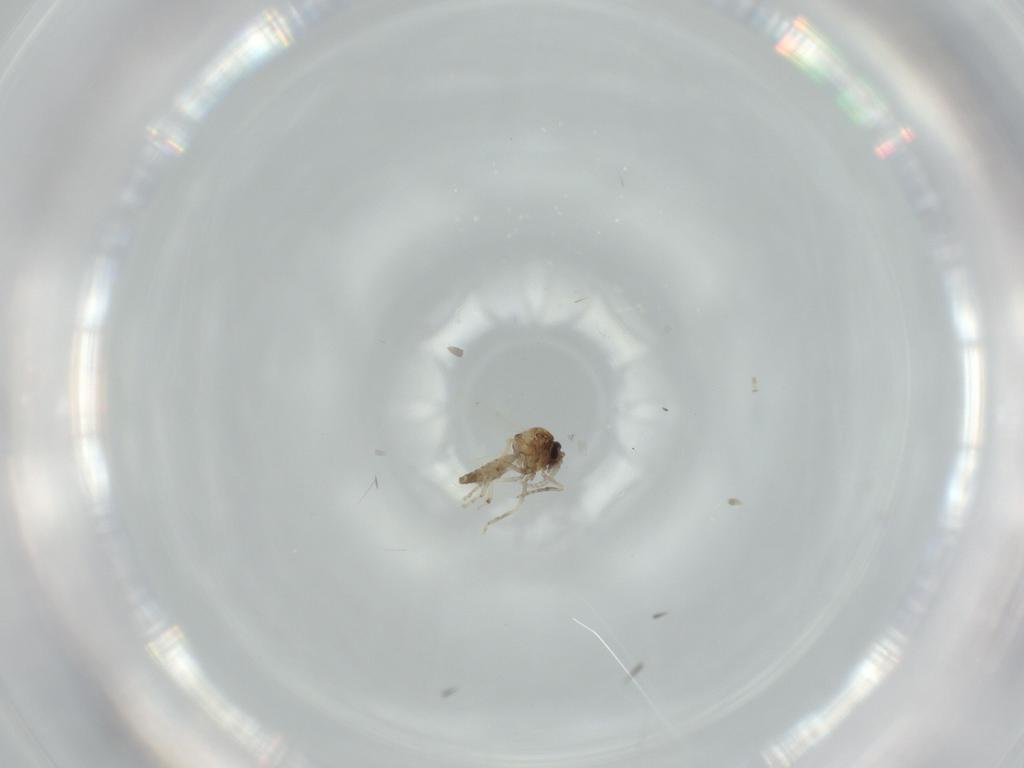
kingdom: Animalia
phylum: Arthropoda
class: Insecta
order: Diptera
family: Ceratopogonidae
